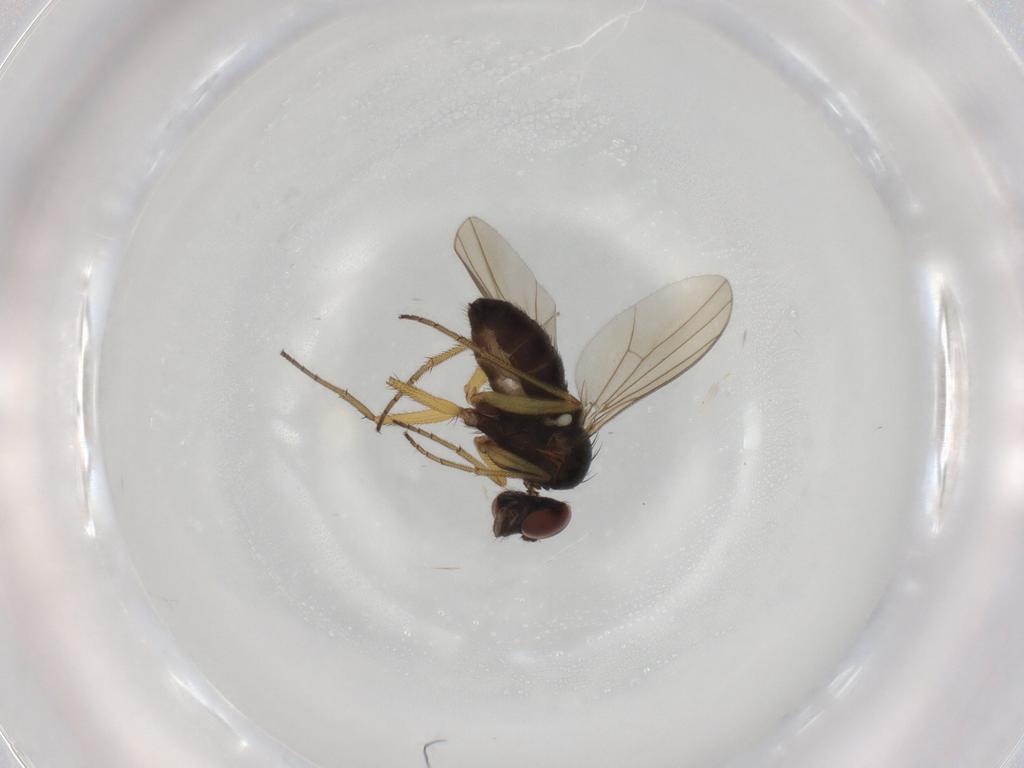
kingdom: Animalia
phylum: Arthropoda
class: Insecta
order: Diptera
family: Dolichopodidae
